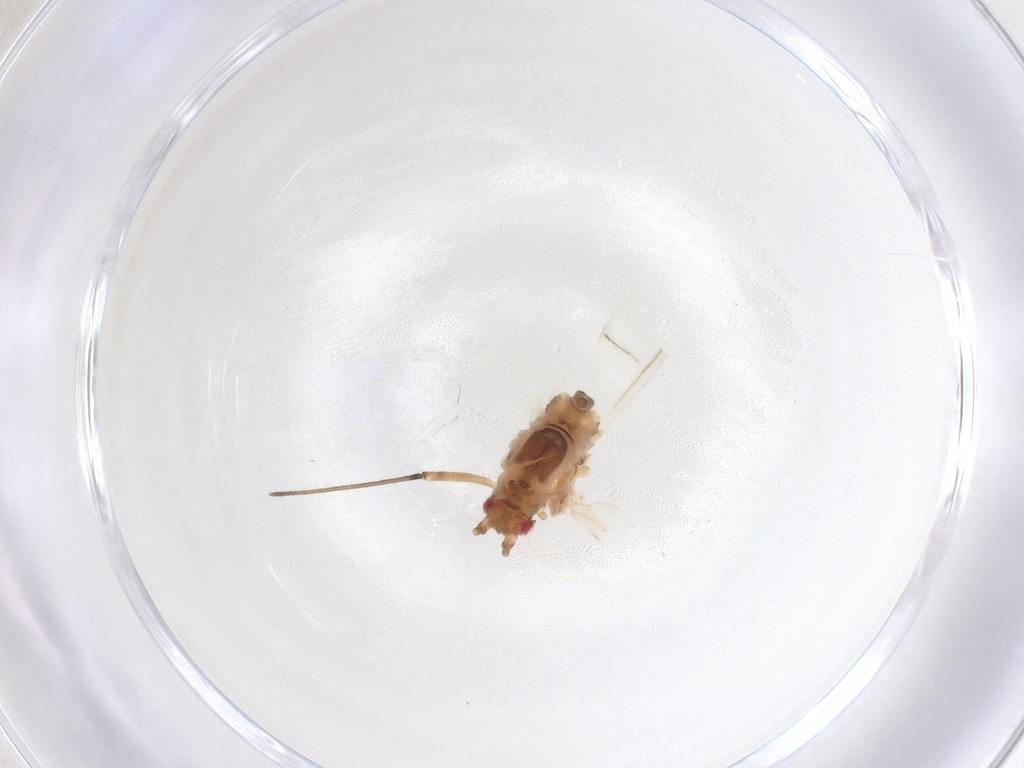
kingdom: Animalia
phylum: Arthropoda
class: Insecta
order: Hemiptera
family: Aphididae
